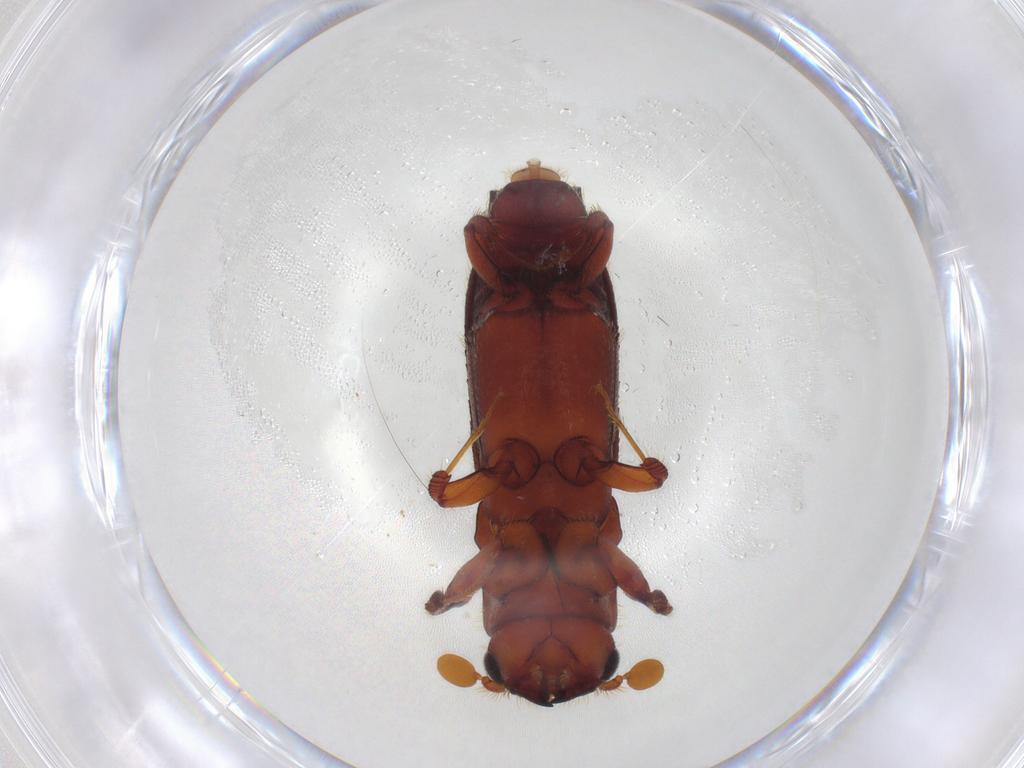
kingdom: Animalia
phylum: Arthropoda
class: Insecta
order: Coleoptera
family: Curculionidae
